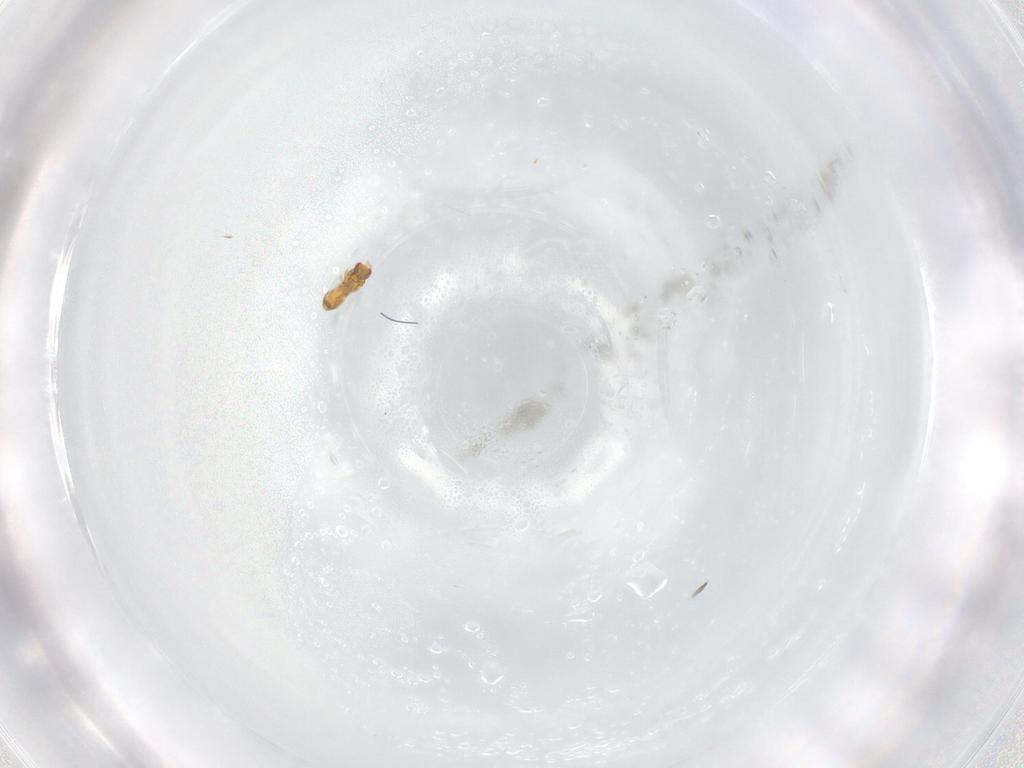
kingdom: Animalia
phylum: Arthropoda
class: Insecta
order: Hymenoptera
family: Trichogrammatidae
